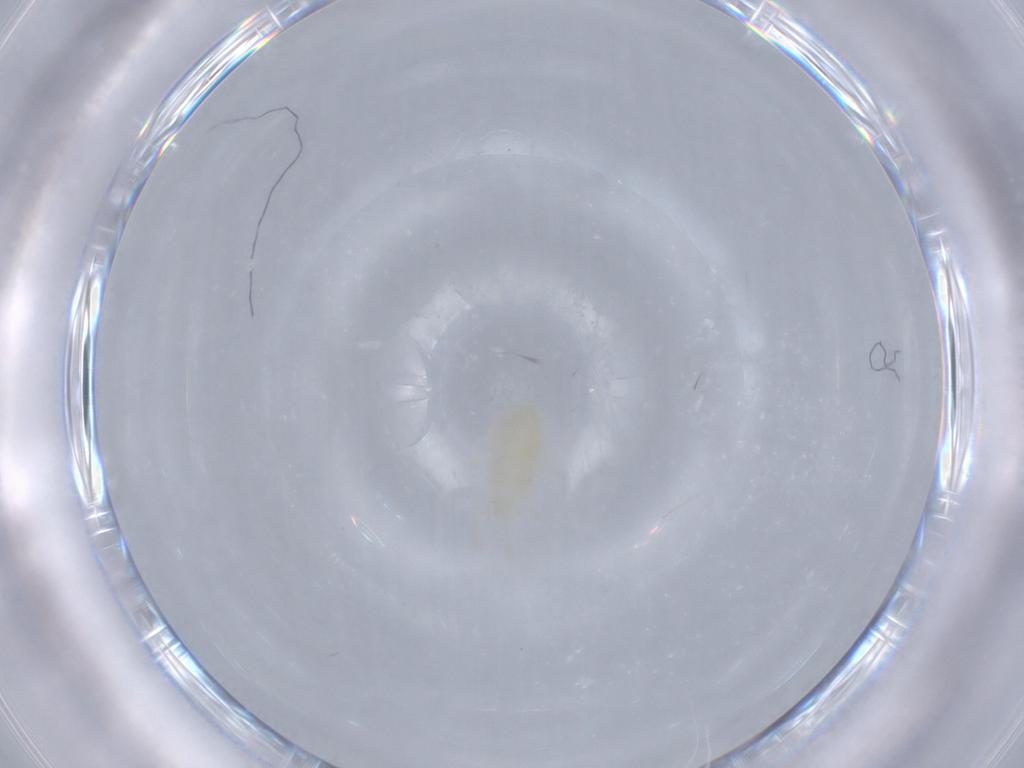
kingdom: Animalia
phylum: Arthropoda
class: Arachnida
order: Trombidiformes
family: Rhagidiidae
